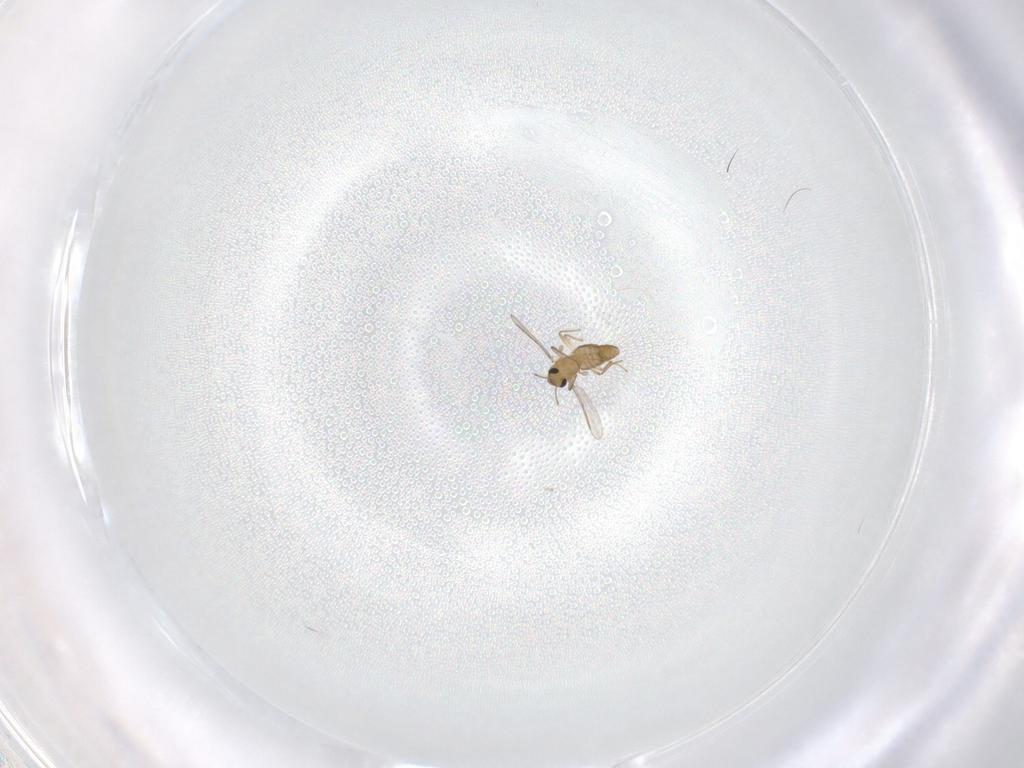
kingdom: Animalia
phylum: Arthropoda
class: Insecta
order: Diptera
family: Chironomidae
